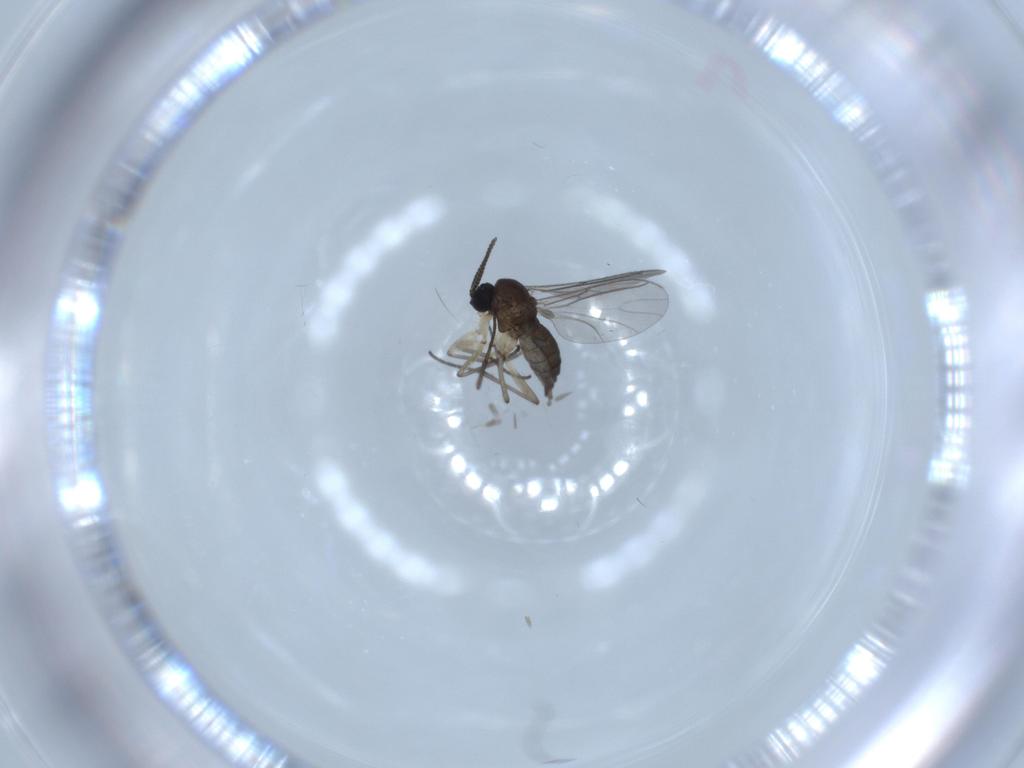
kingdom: Animalia
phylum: Arthropoda
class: Insecta
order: Diptera
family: Sciaridae
